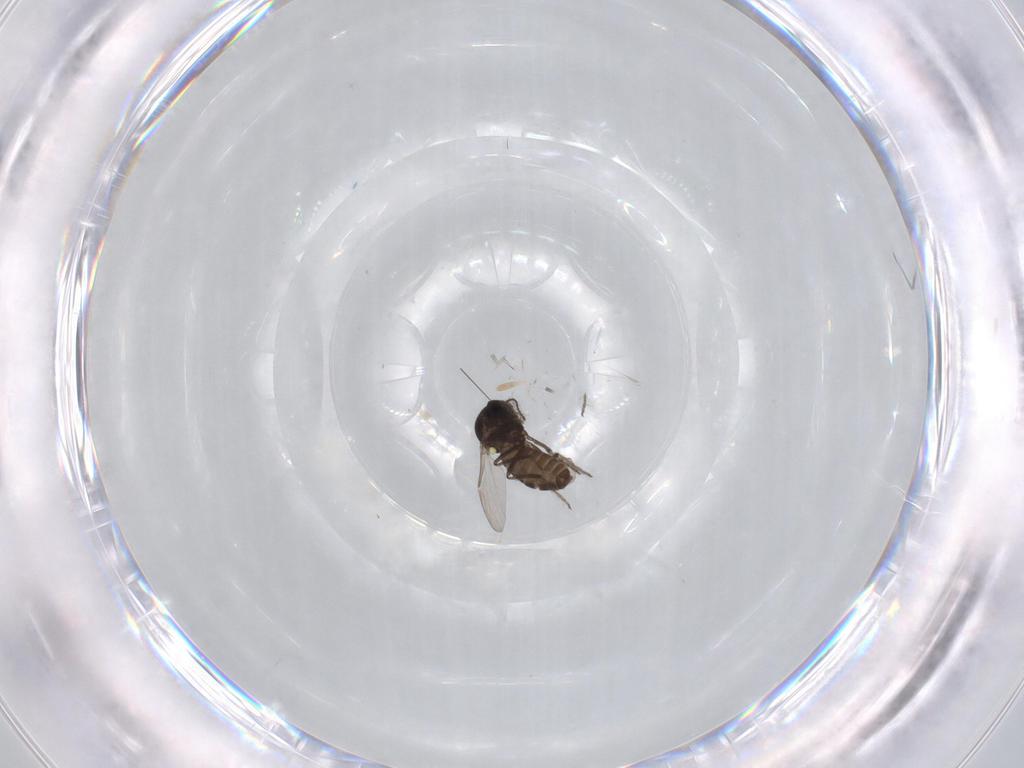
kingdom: Animalia
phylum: Arthropoda
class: Insecta
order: Diptera
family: Ceratopogonidae
